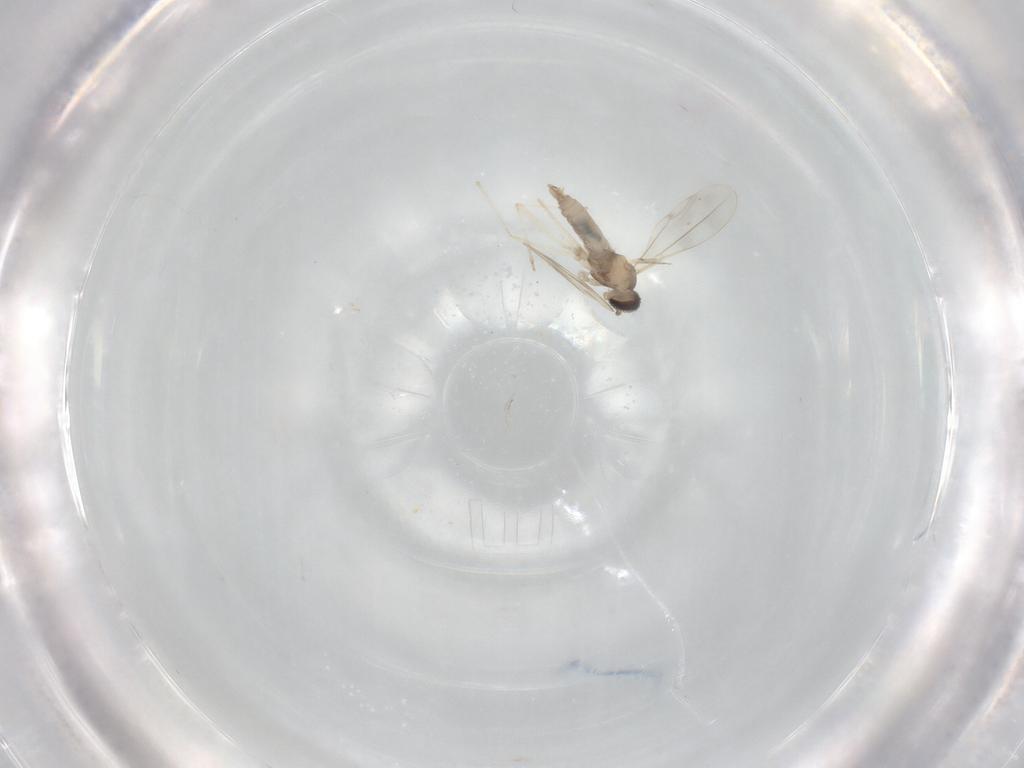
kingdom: Animalia
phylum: Arthropoda
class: Insecta
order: Diptera
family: Cecidomyiidae
